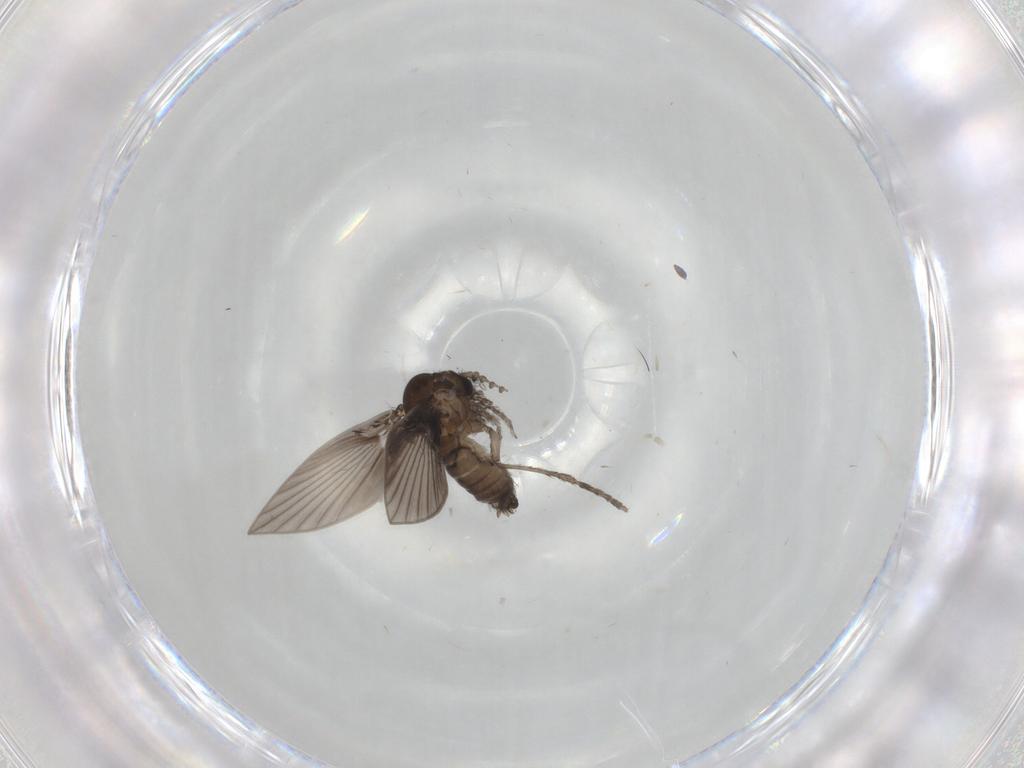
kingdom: Animalia
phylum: Arthropoda
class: Insecta
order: Diptera
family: Psychodidae
